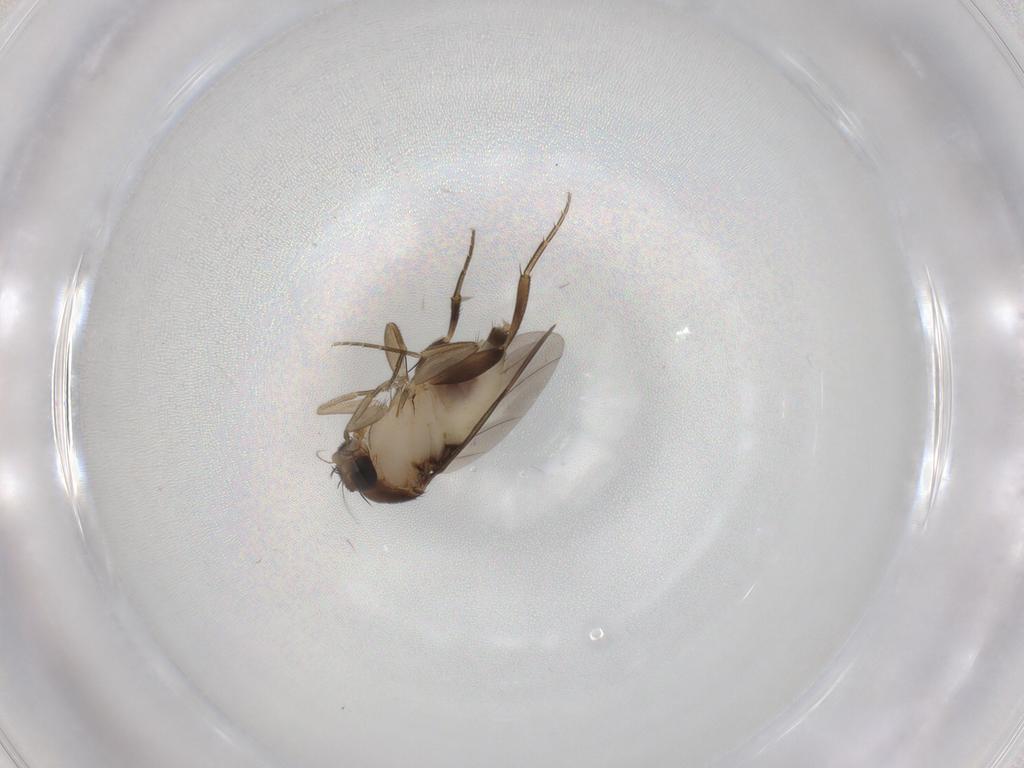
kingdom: Animalia
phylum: Arthropoda
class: Insecta
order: Diptera
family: Phoridae
